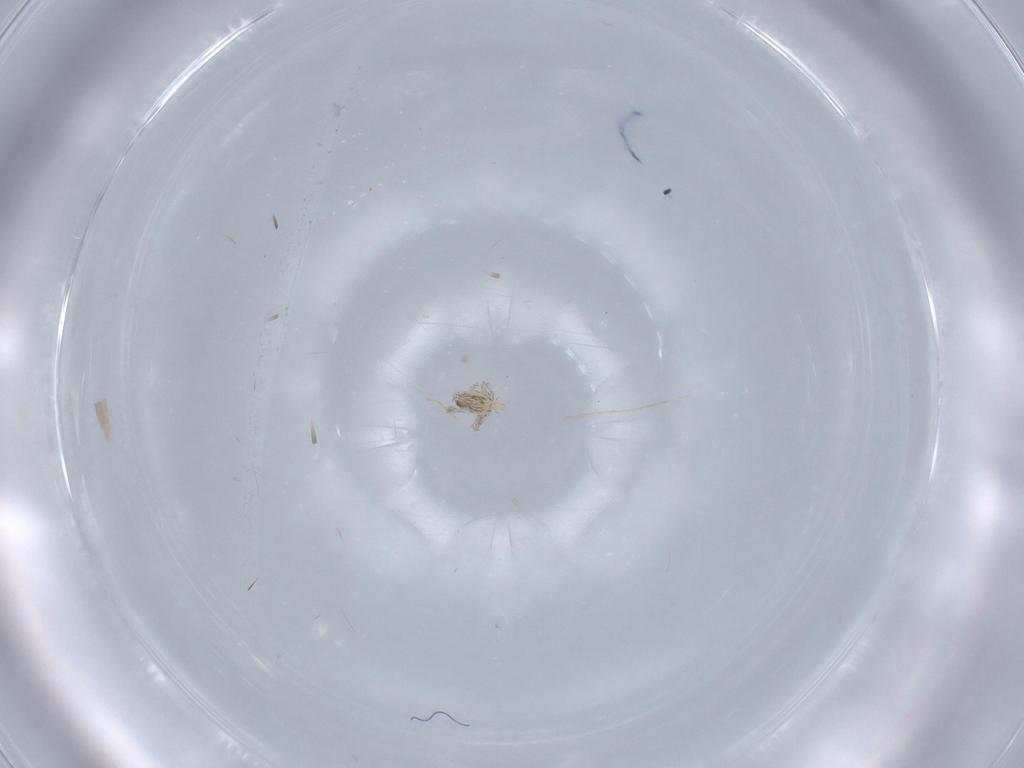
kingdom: Animalia
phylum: Arthropoda
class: Arachnida
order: Trombidiformes
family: Erythraeidae
